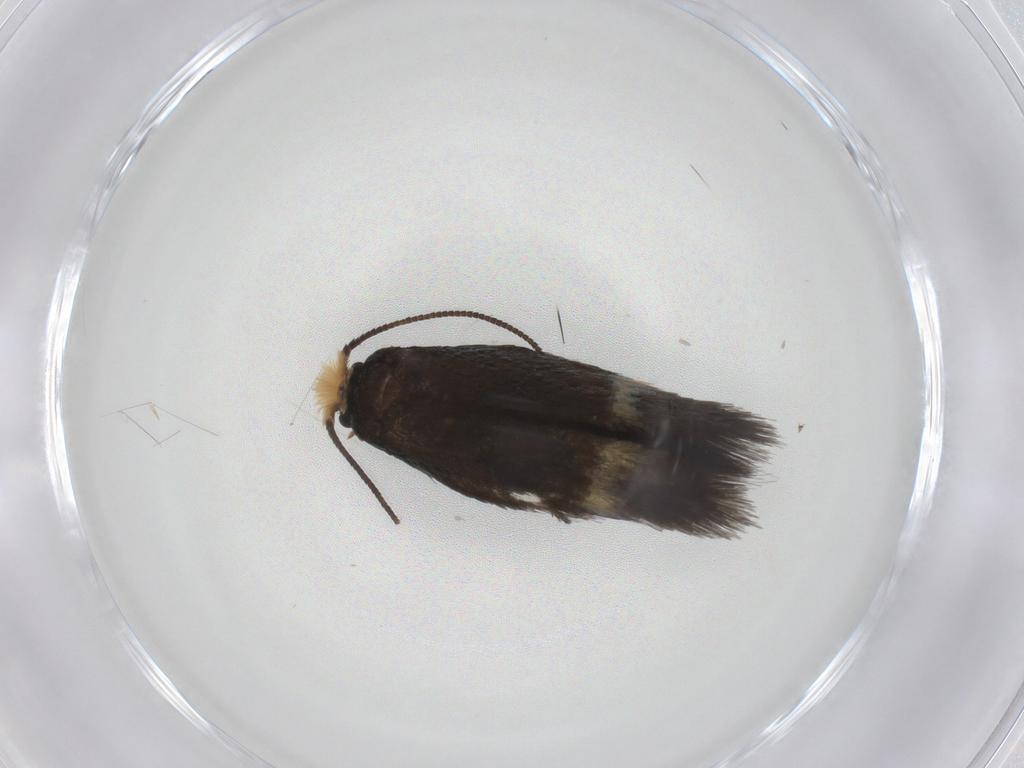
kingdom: Animalia
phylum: Arthropoda
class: Insecta
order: Lepidoptera
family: Nepticulidae
